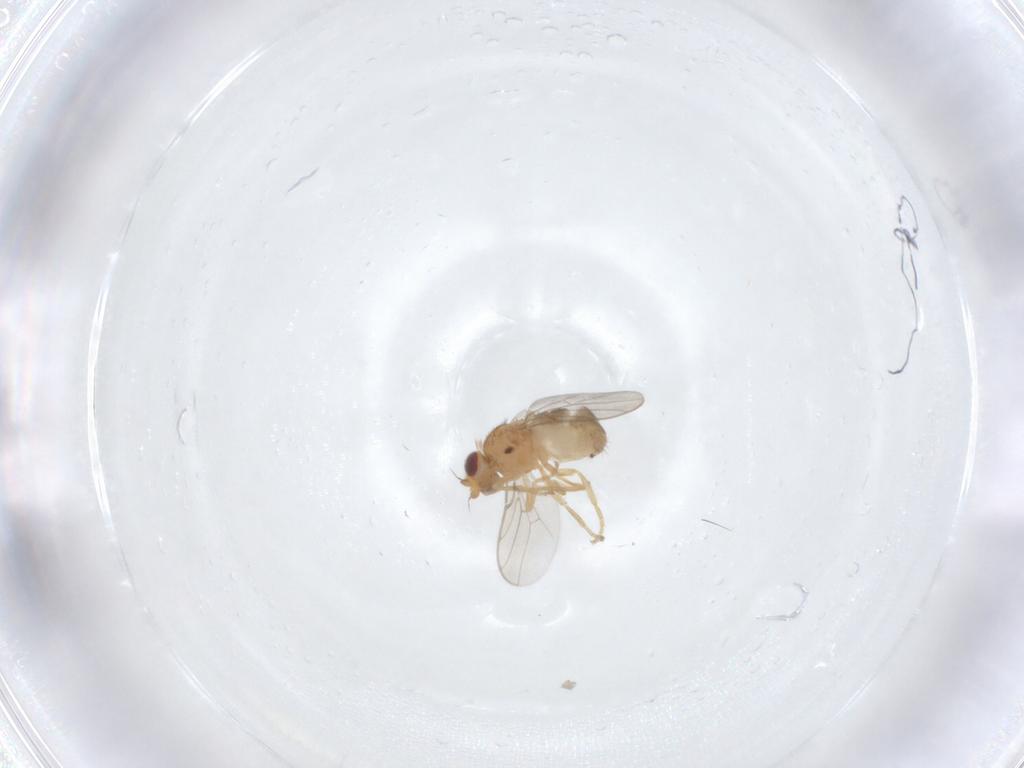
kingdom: Animalia
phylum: Arthropoda
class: Insecta
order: Diptera
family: Chloropidae
